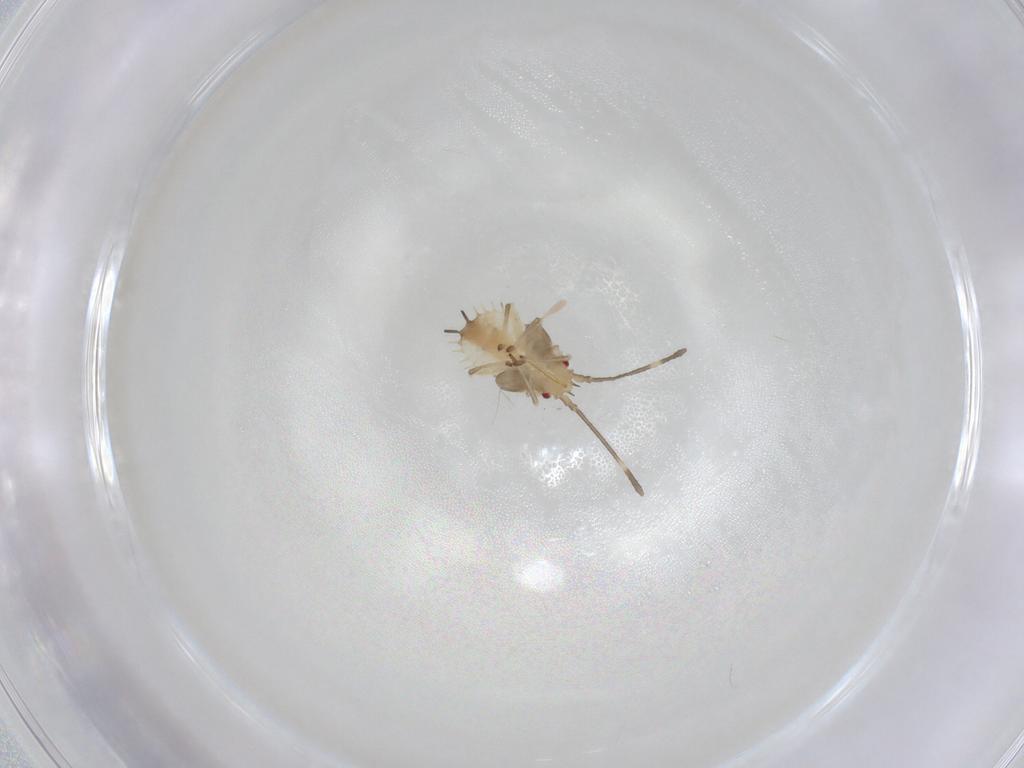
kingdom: Animalia
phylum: Arthropoda
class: Insecta
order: Hemiptera
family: Tingidae
